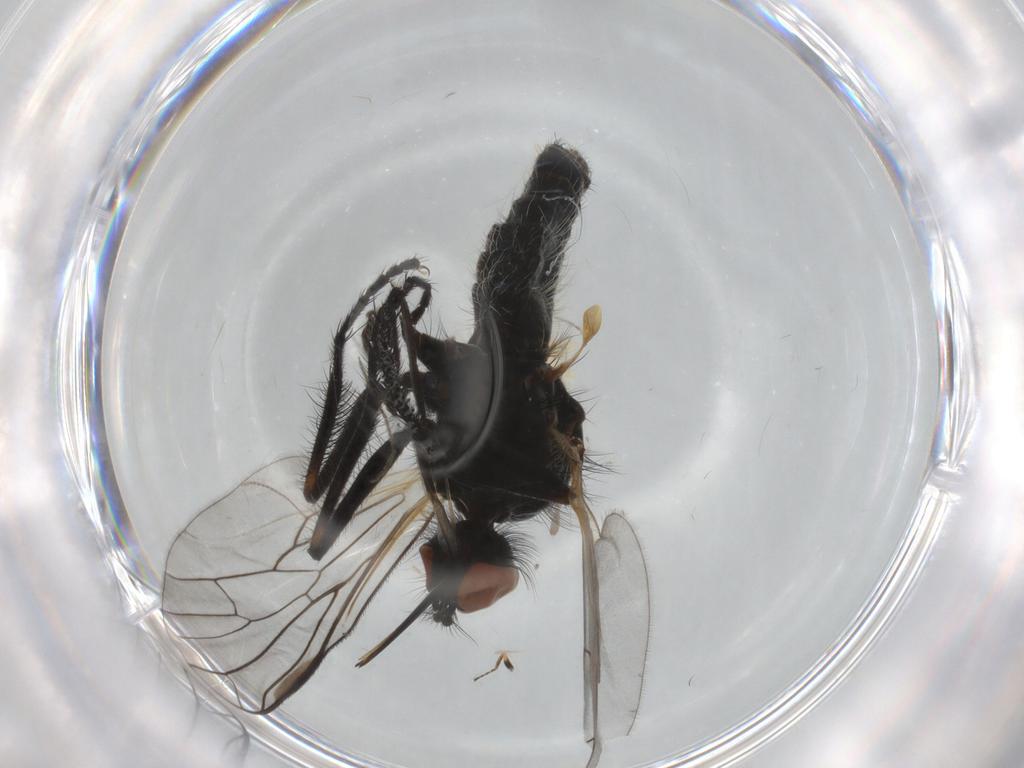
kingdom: Animalia
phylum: Arthropoda
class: Insecta
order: Diptera
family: Empididae
